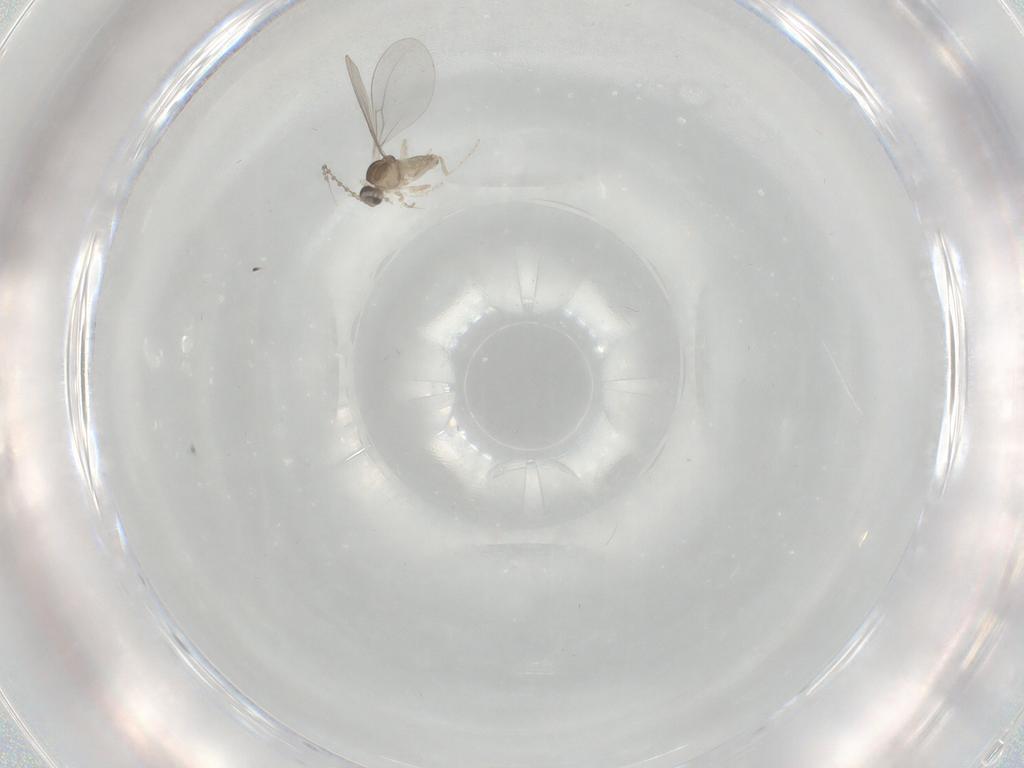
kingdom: Animalia
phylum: Arthropoda
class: Insecta
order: Diptera
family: Cecidomyiidae
